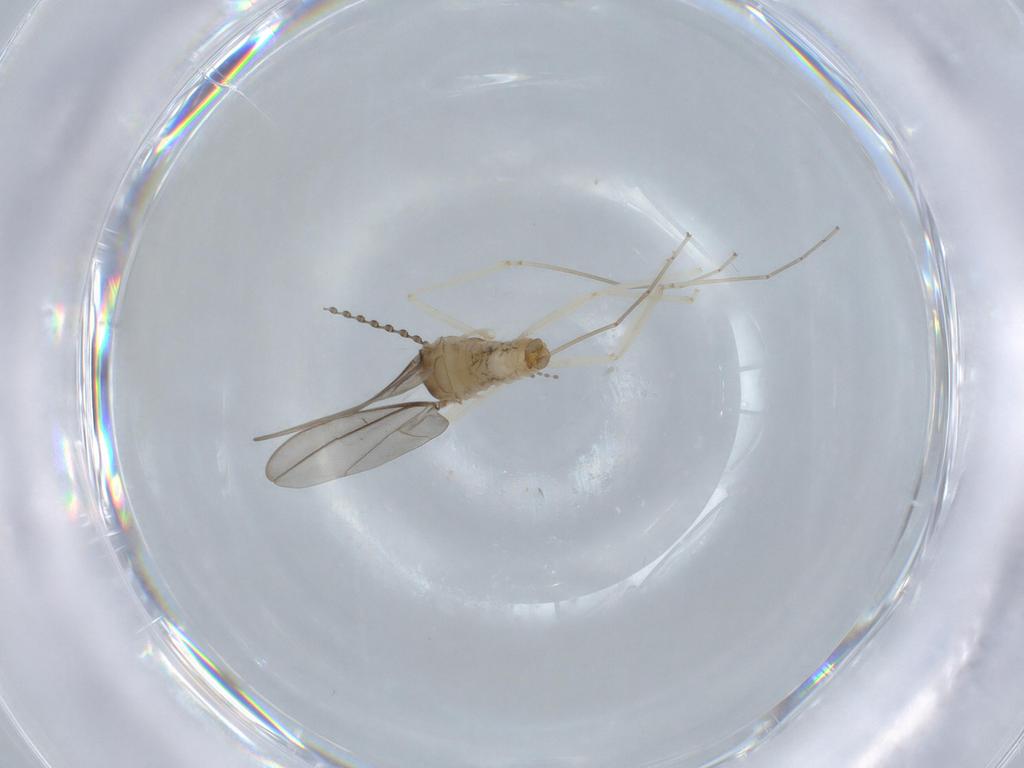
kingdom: Animalia
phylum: Arthropoda
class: Insecta
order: Diptera
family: Cecidomyiidae
